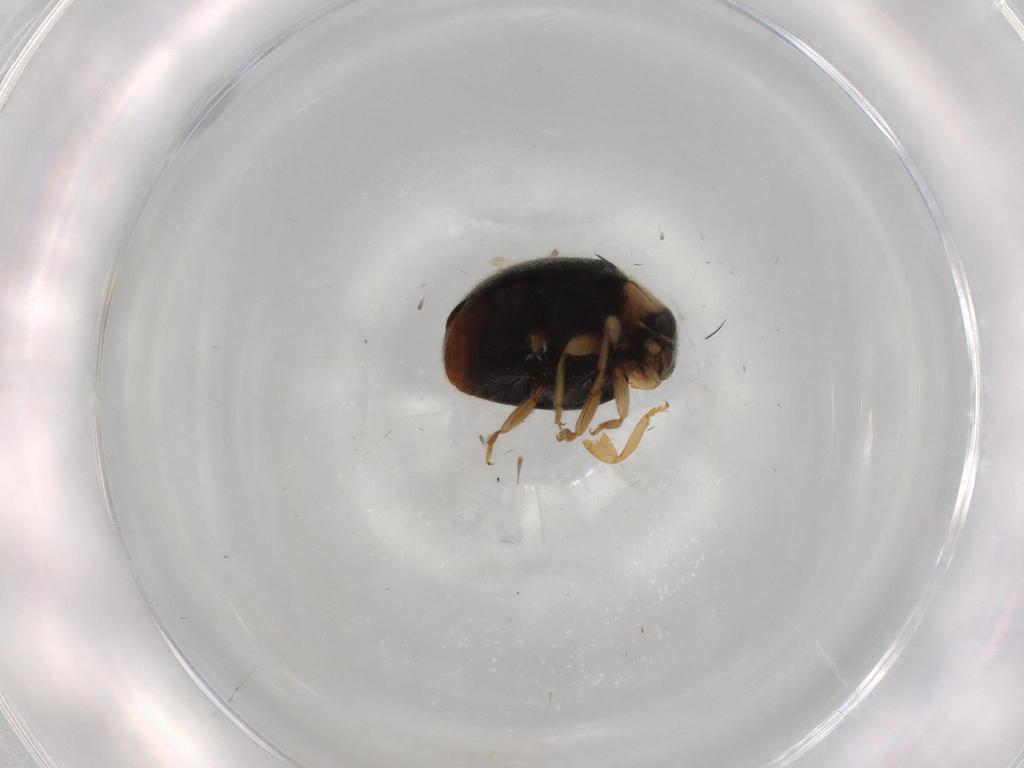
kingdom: Animalia
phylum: Arthropoda
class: Insecta
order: Coleoptera
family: Coccinellidae
